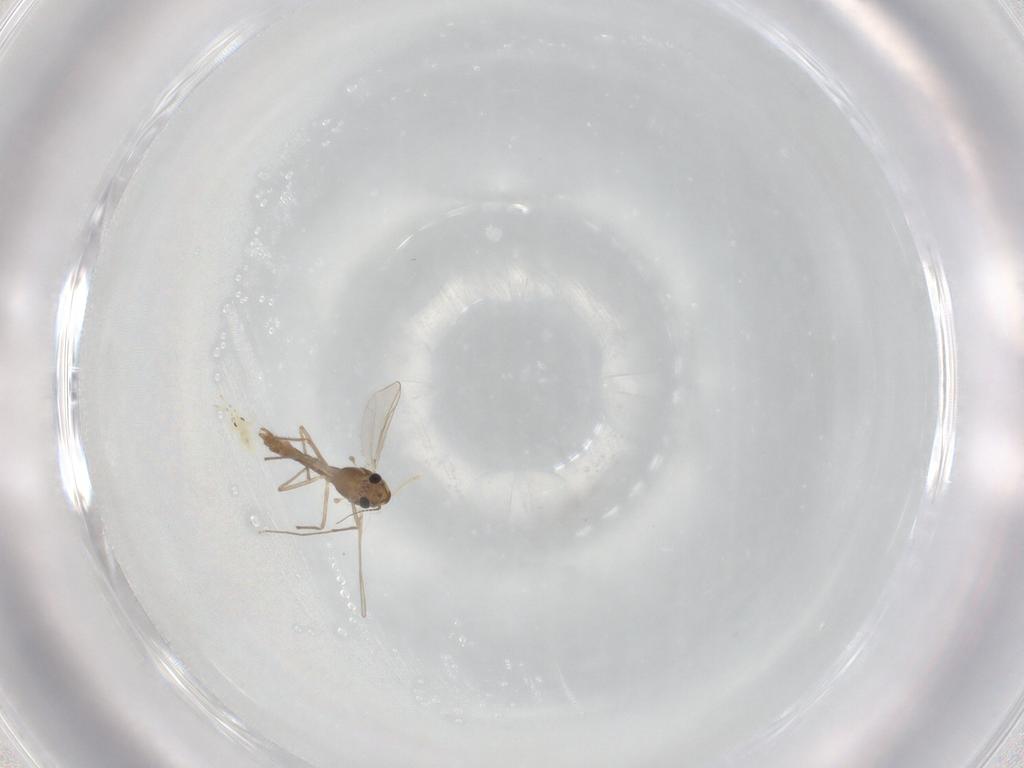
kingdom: Animalia
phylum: Arthropoda
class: Insecta
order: Diptera
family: Chironomidae
